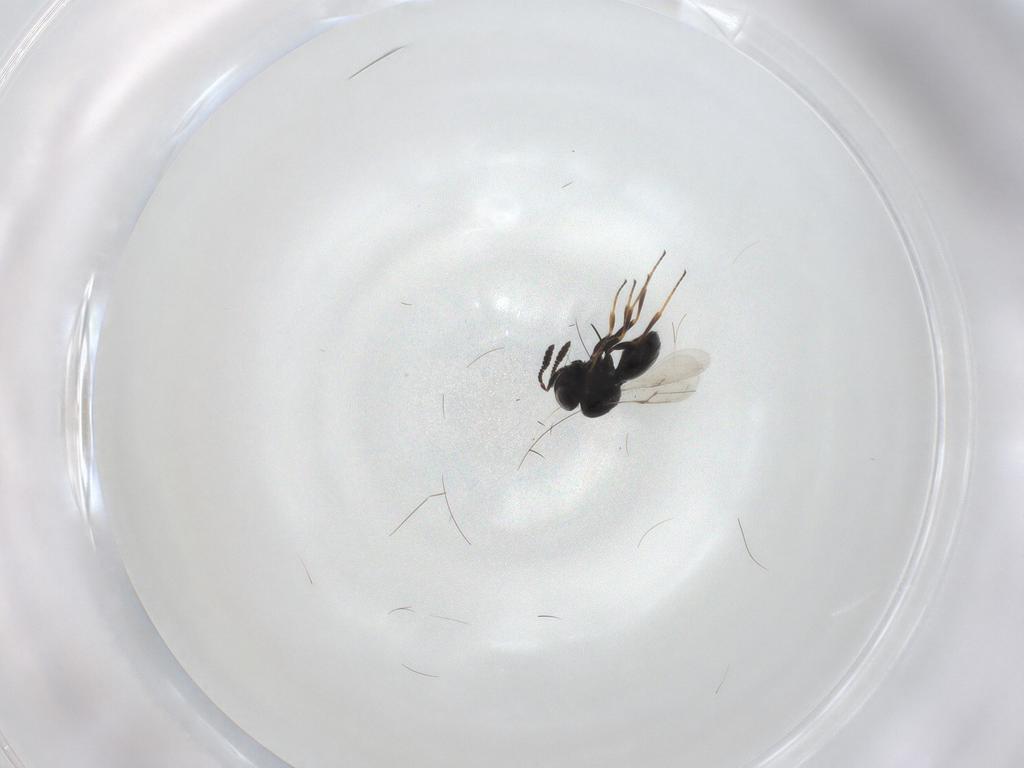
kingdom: Animalia
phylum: Arthropoda
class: Insecta
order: Hymenoptera
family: Scelionidae
